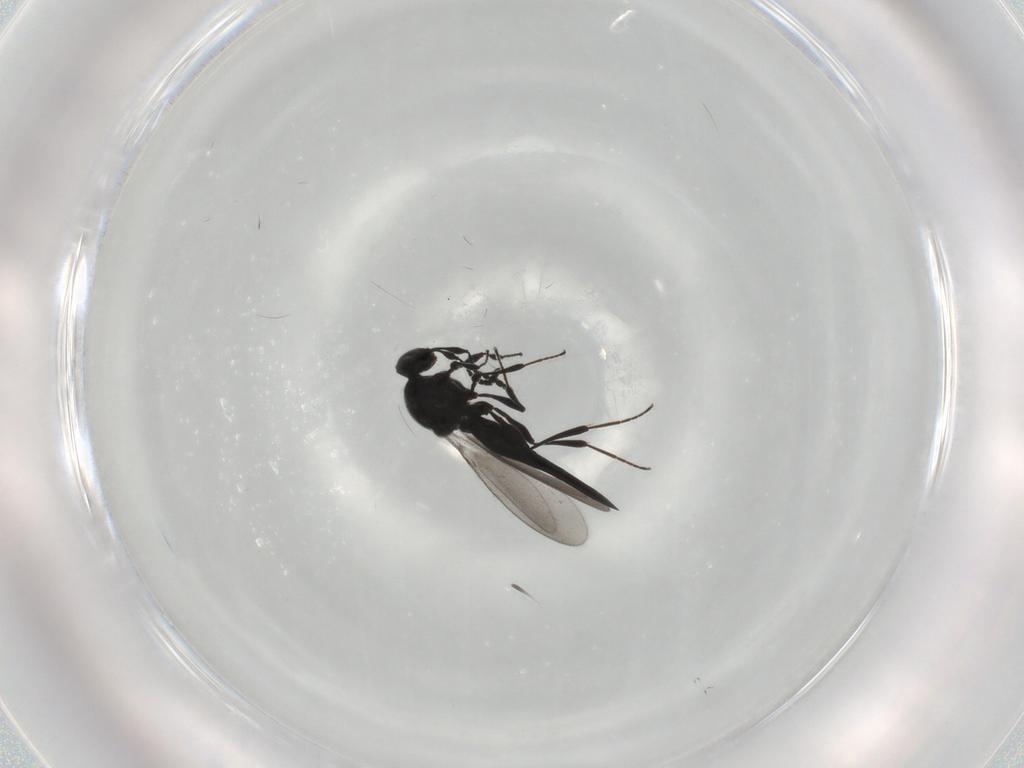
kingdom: Animalia
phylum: Arthropoda
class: Insecta
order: Hymenoptera
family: Platygastridae
